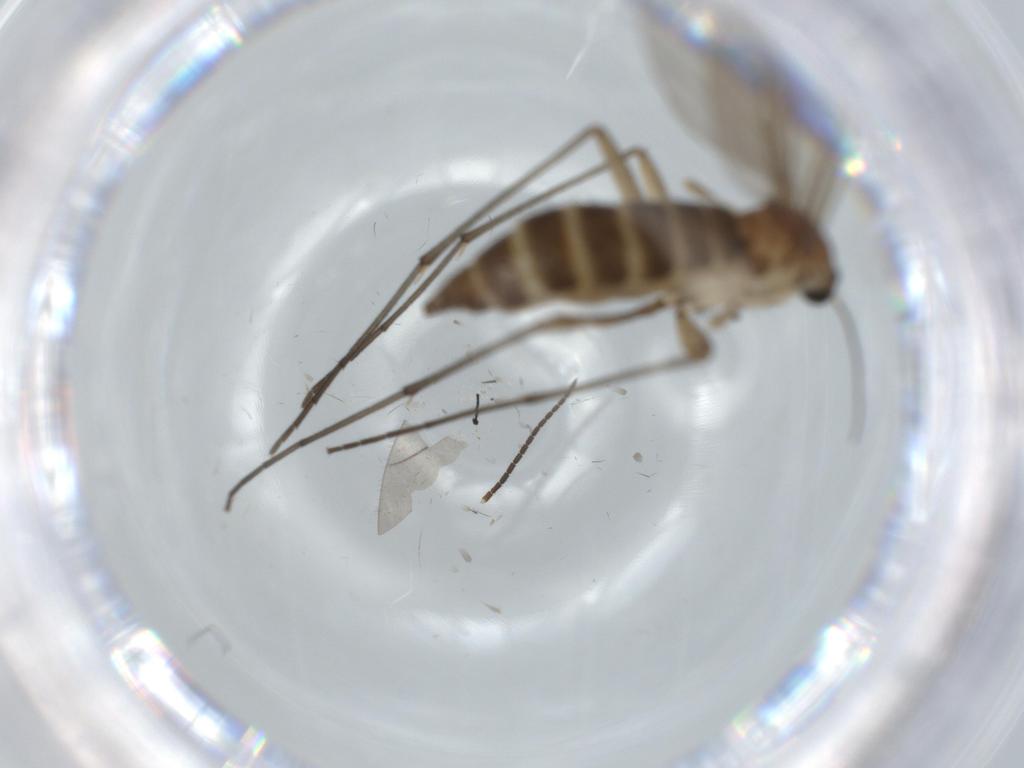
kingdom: Animalia
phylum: Arthropoda
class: Insecta
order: Diptera
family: Sciaridae
